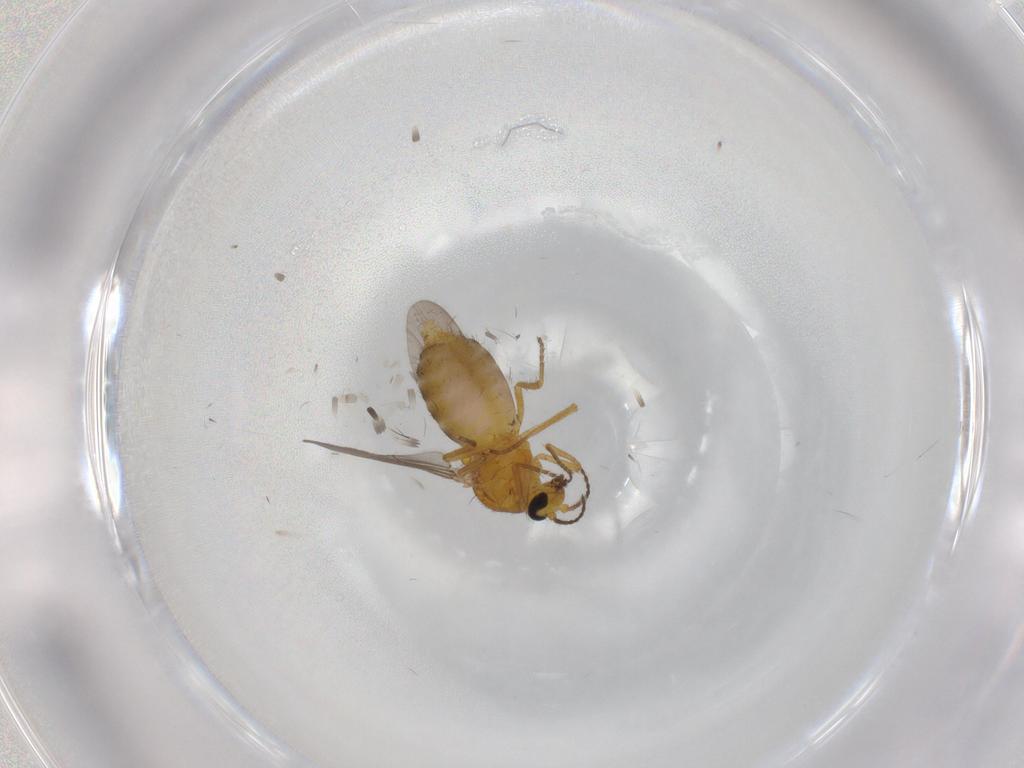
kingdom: Animalia
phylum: Arthropoda
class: Insecta
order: Diptera
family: Ceratopogonidae
